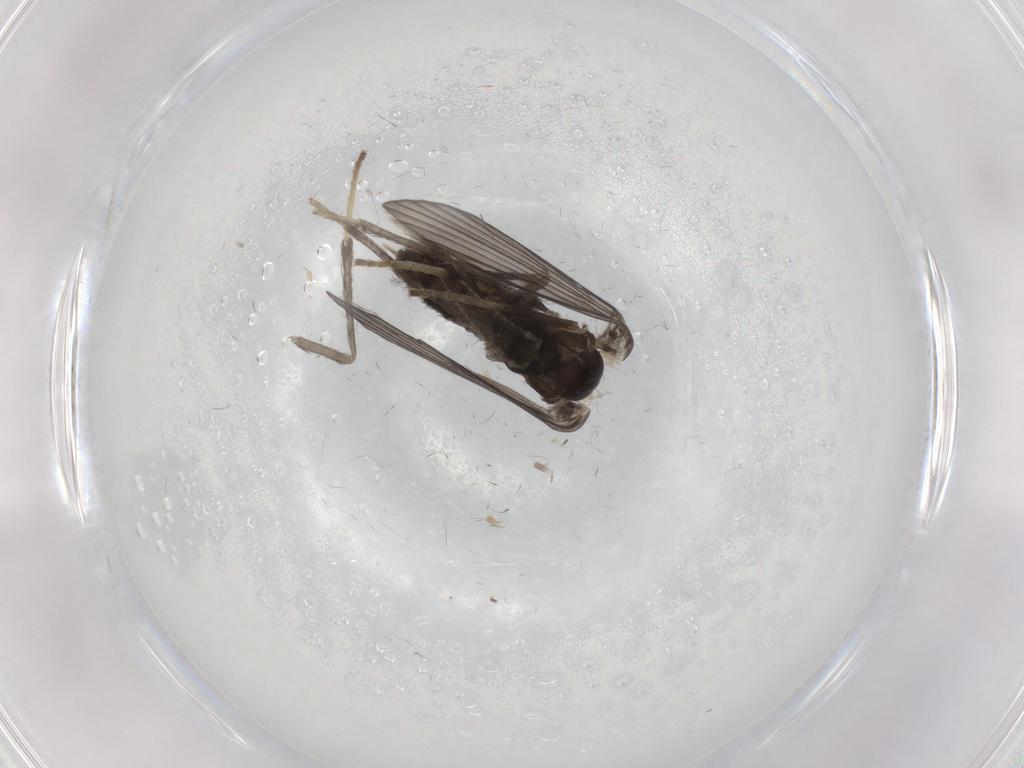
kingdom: Animalia
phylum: Arthropoda
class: Insecta
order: Diptera
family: Psychodidae
